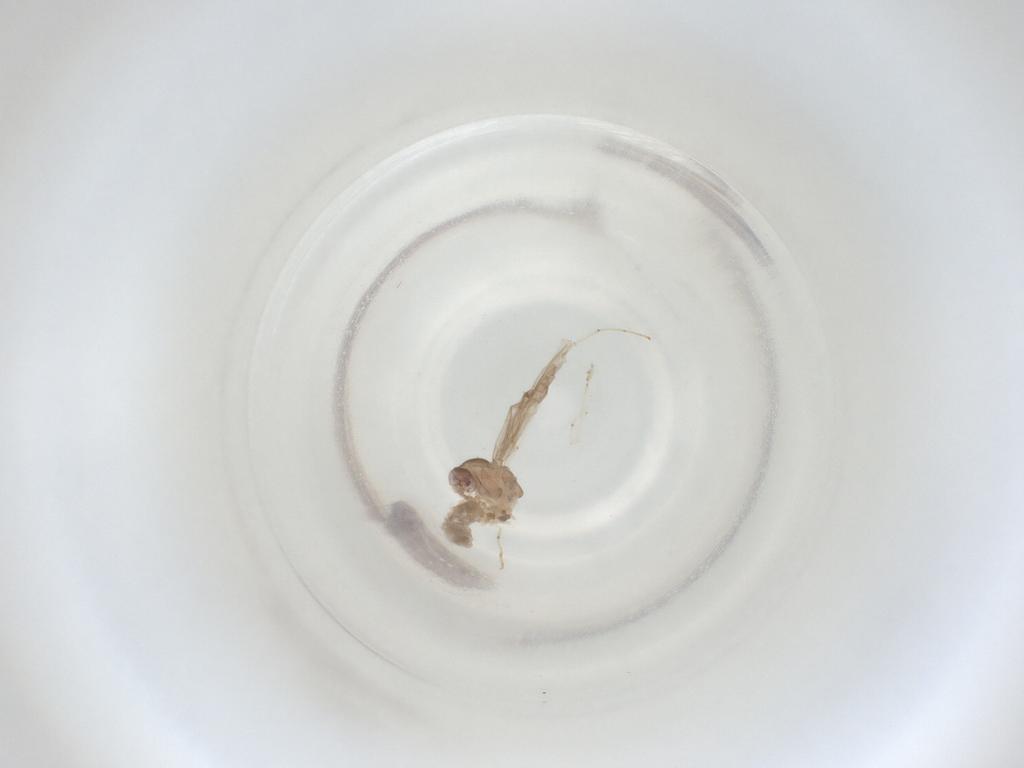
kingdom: Animalia
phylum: Arthropoda
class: Insecta
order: Diptera
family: Cecidomyiidae
